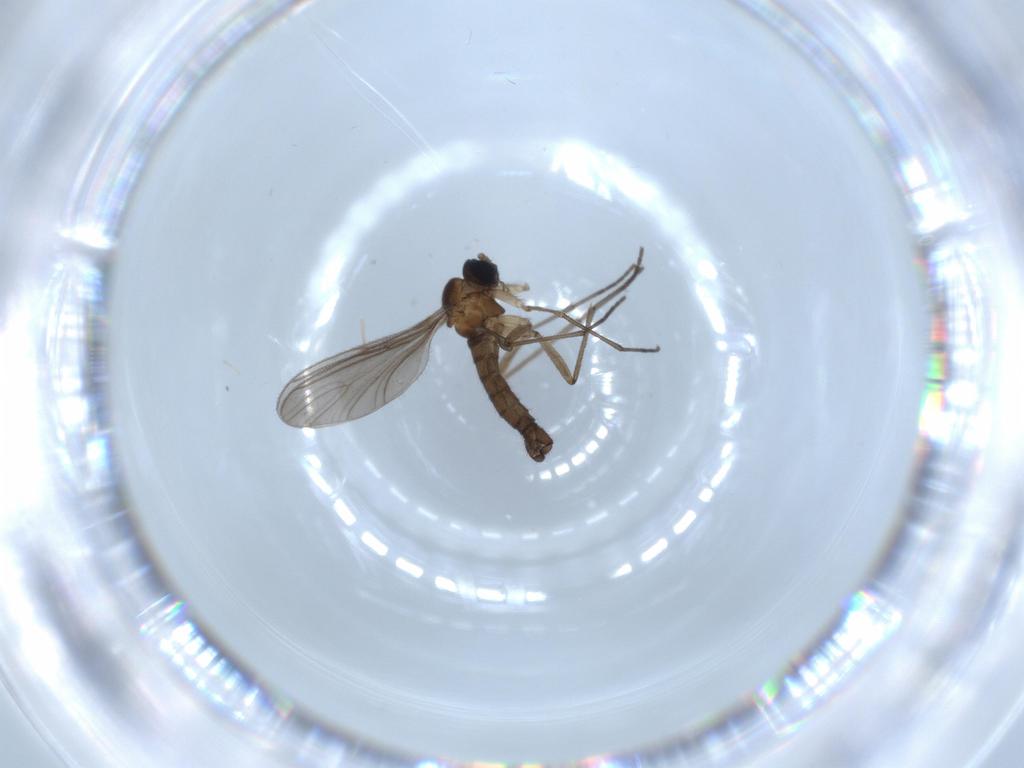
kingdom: Animalia
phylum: Arthropoda
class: Insecta
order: Diptera
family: Sciaridae
